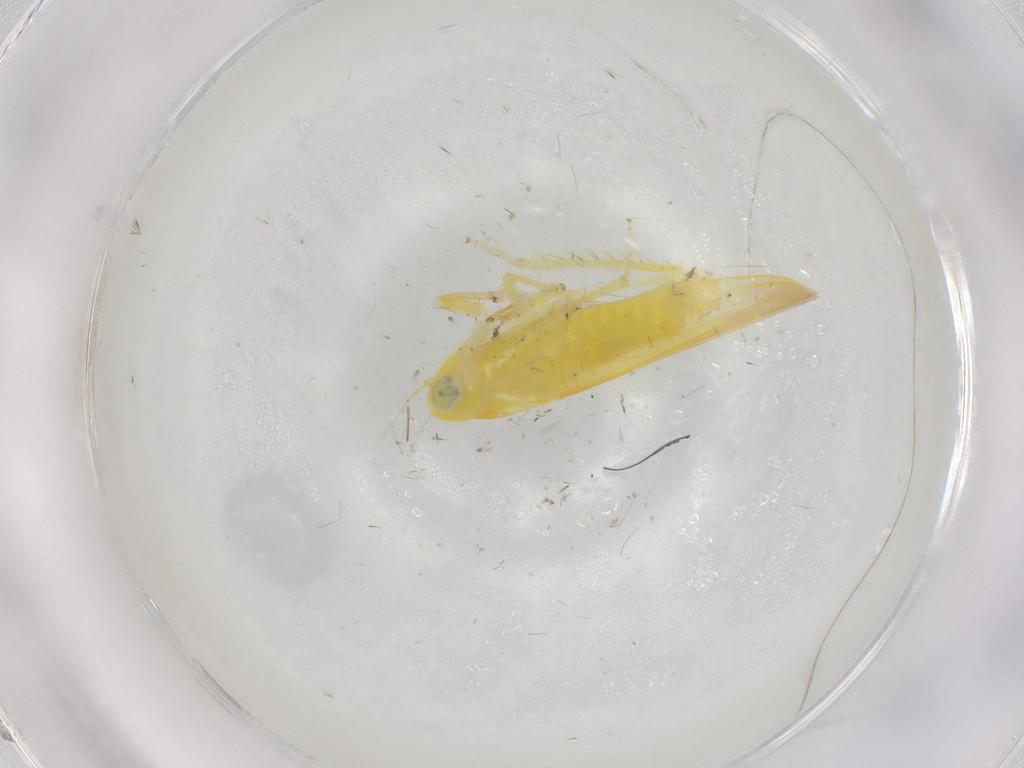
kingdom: Animalia
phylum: Arthropoda
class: Insecta
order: Hemiptera
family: Cicadellidae
